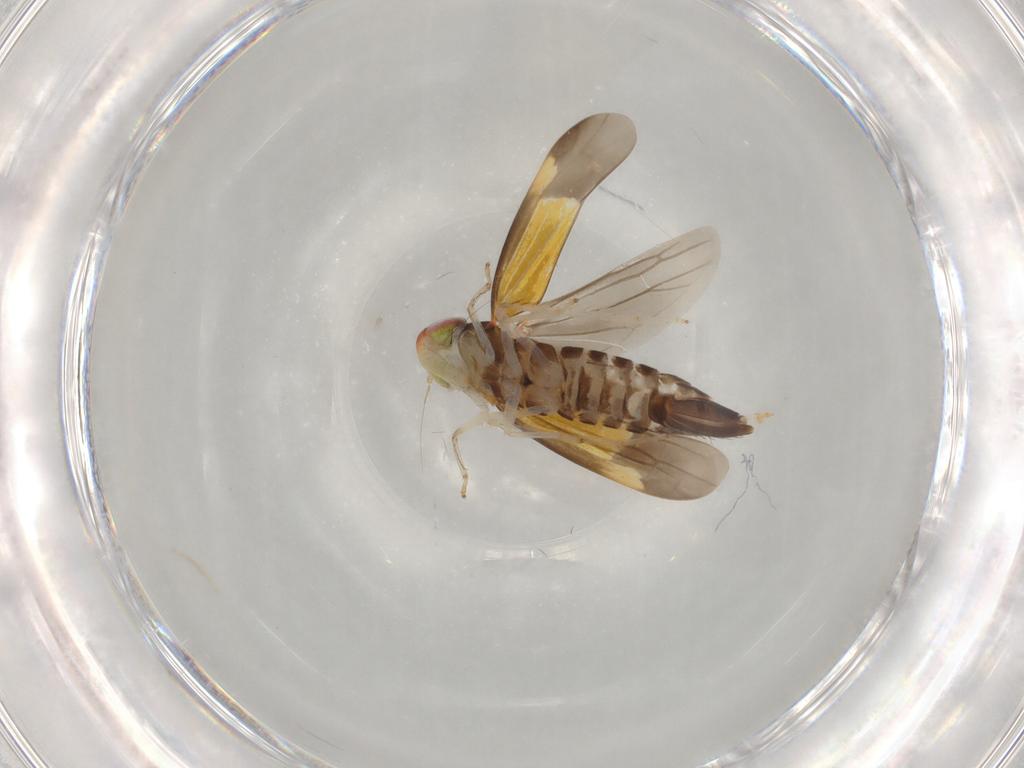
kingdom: Animalia
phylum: Arthropoda
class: Insecta
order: Hemiptera
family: Cicadellidae
